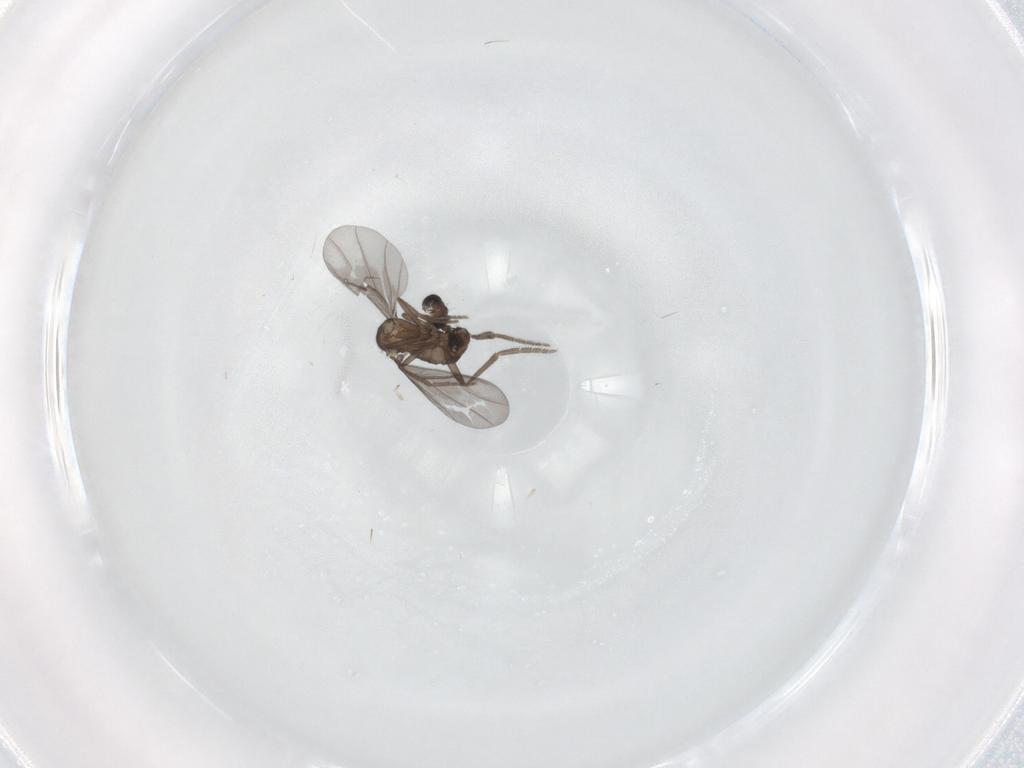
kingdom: Animalia
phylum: Arthropoda
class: Insecta
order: Diptera
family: Phoridae
